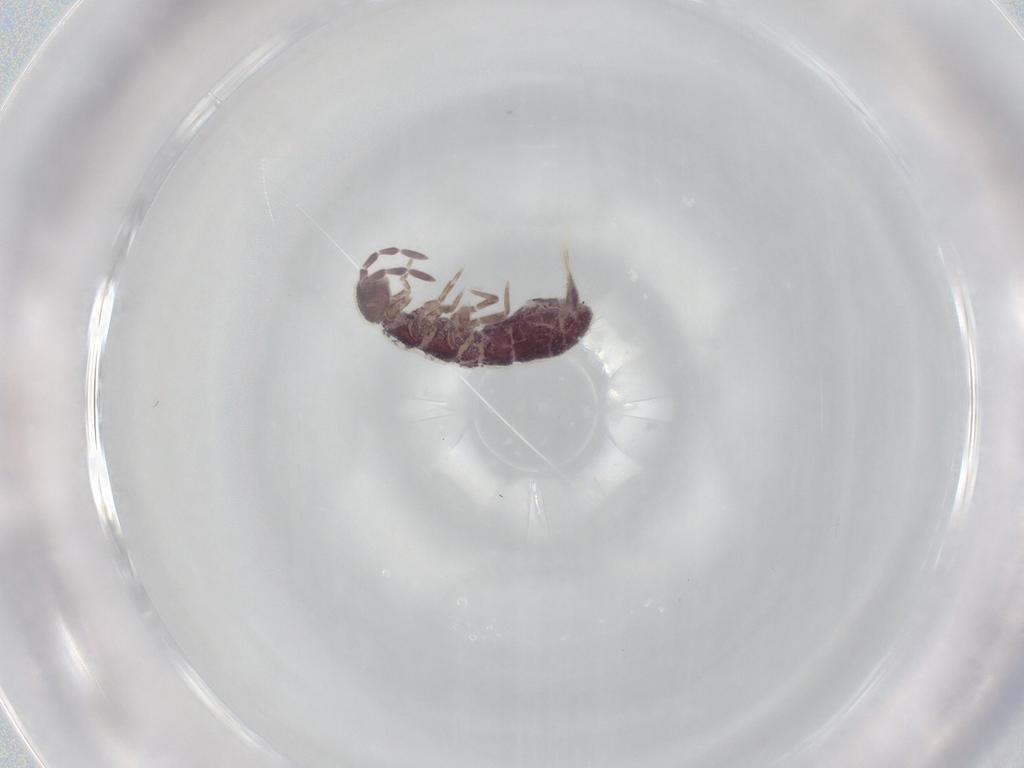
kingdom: Animalia
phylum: Arthropoda
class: Collembola
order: Entomobryomorpha
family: Isotomidae
